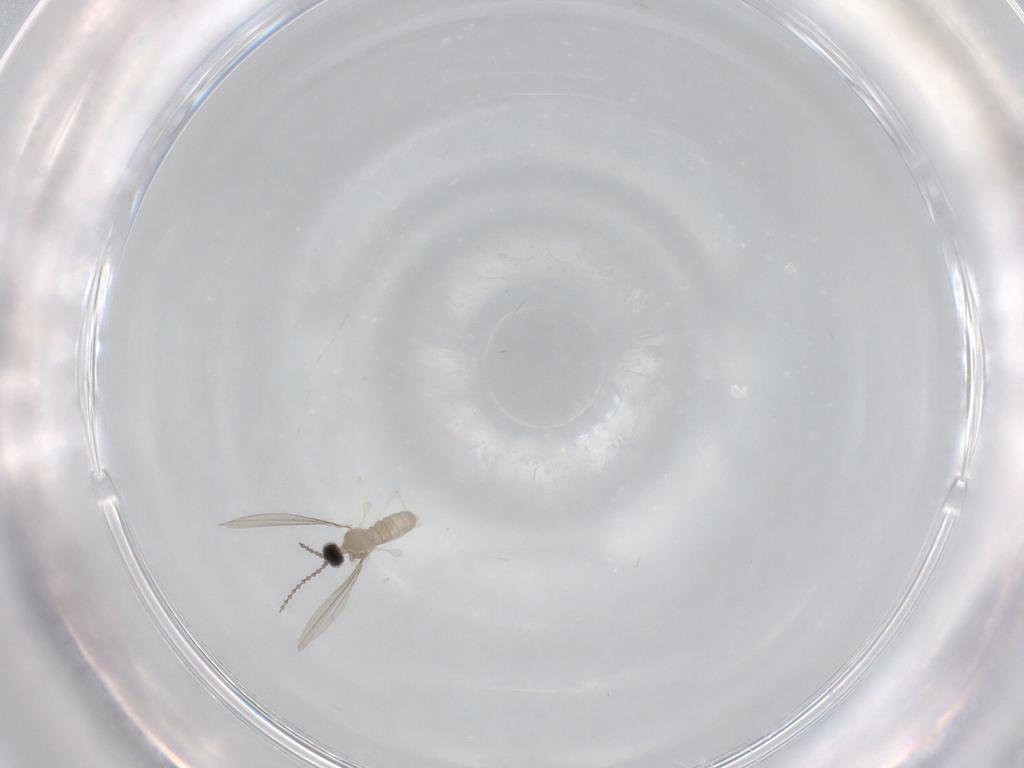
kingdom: Animalia
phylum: Arthropoda
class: Insecta
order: Diptera
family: Cecidomyiidae
